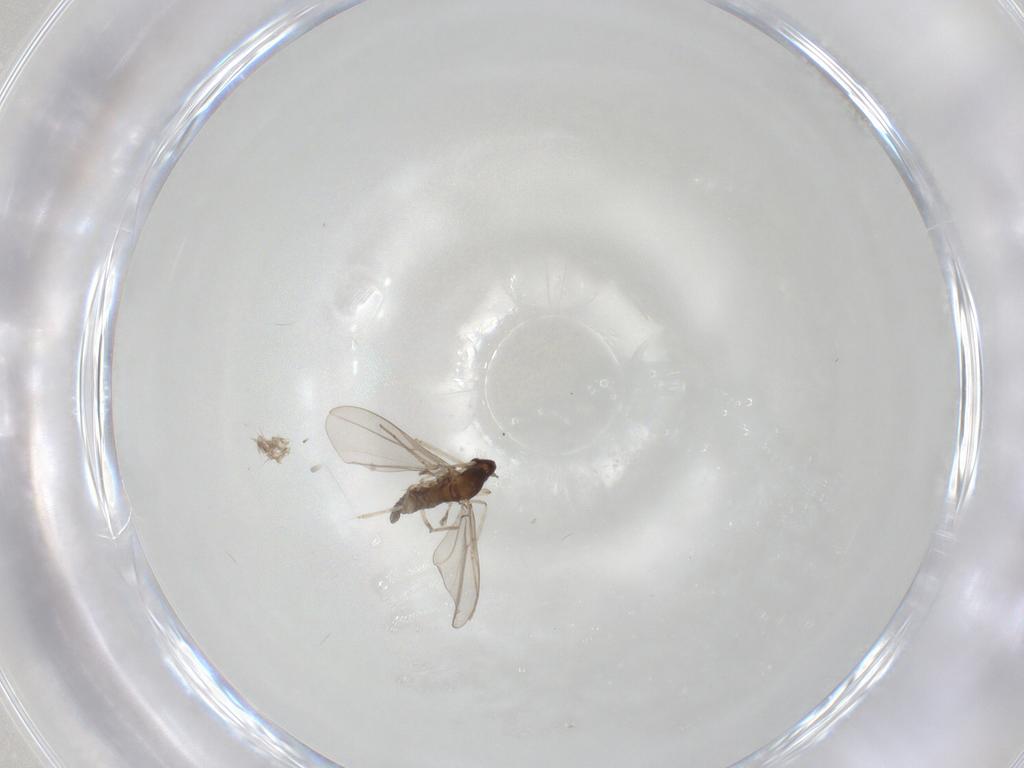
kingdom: Animalia
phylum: Arthropoda
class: Insecta
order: Diptera
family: Cecidomyiidae
